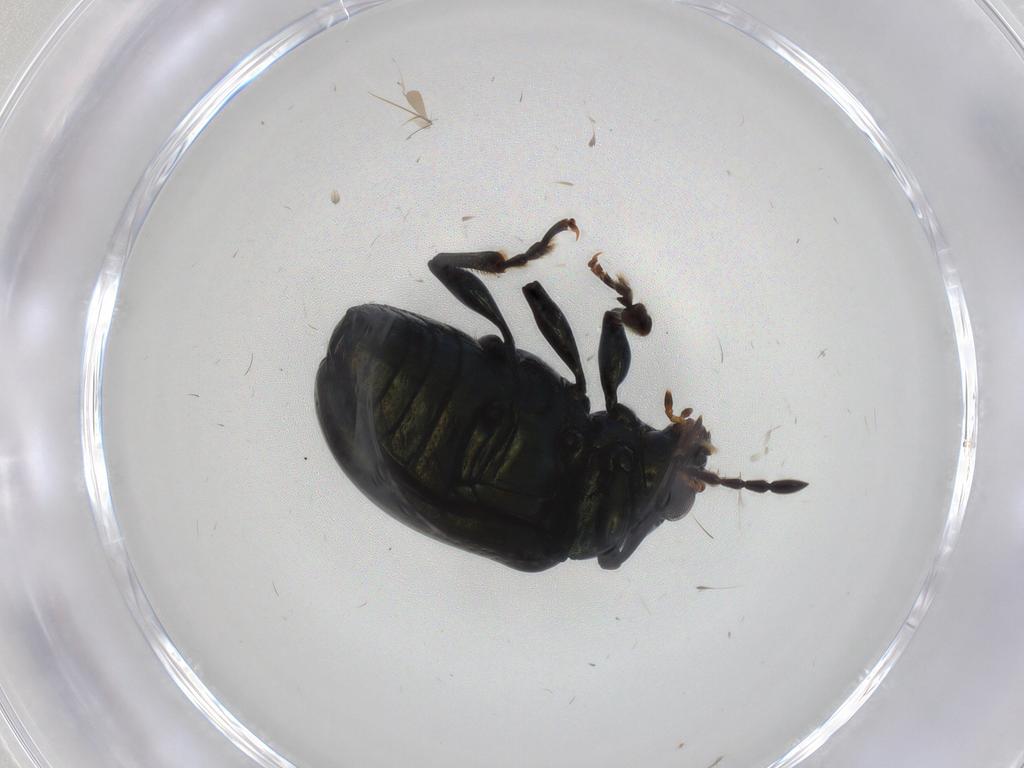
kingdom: Animalia
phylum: Arthropoda
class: Insecta
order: Coleoptera
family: Chrysomelidae
